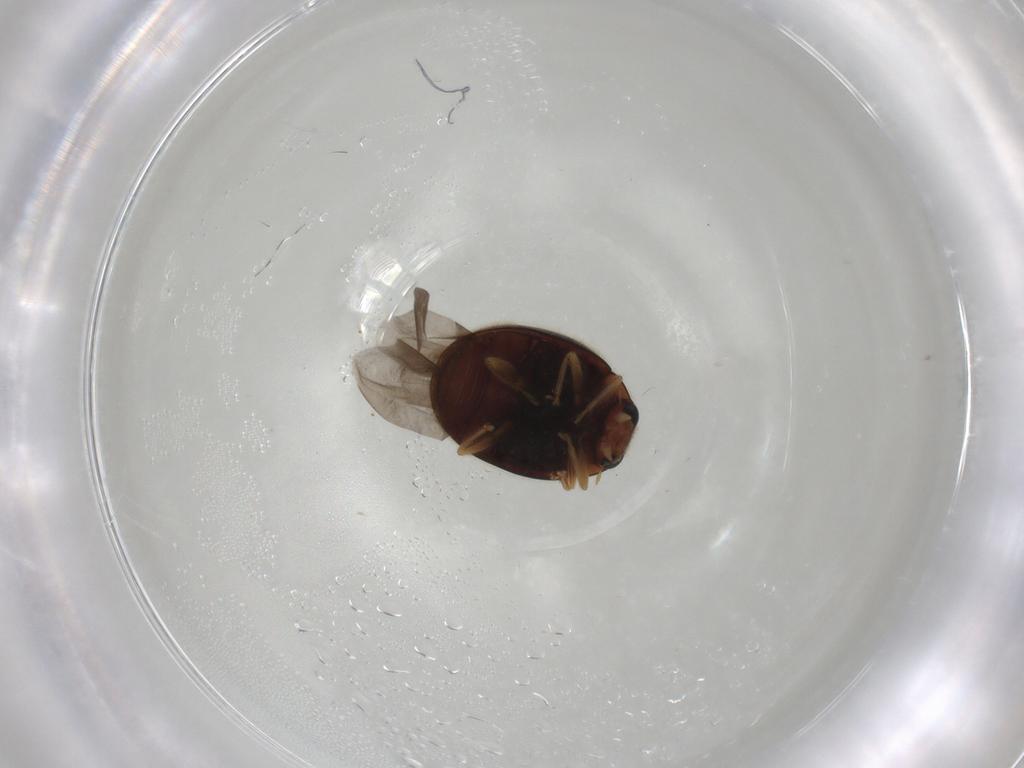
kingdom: Animalia
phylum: Arthropoda
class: Insecta
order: Coleoptera
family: Coccinellidae
